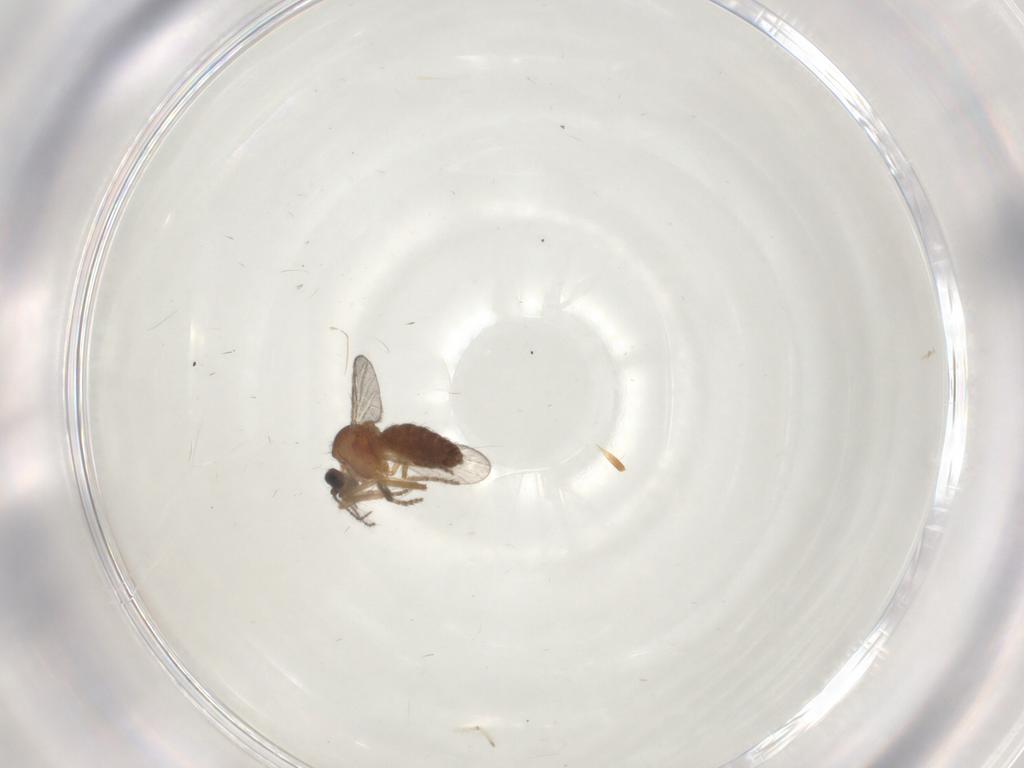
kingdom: Animalia
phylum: Arthropoda
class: Insecta
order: Diptera
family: Ceratopogonidae
